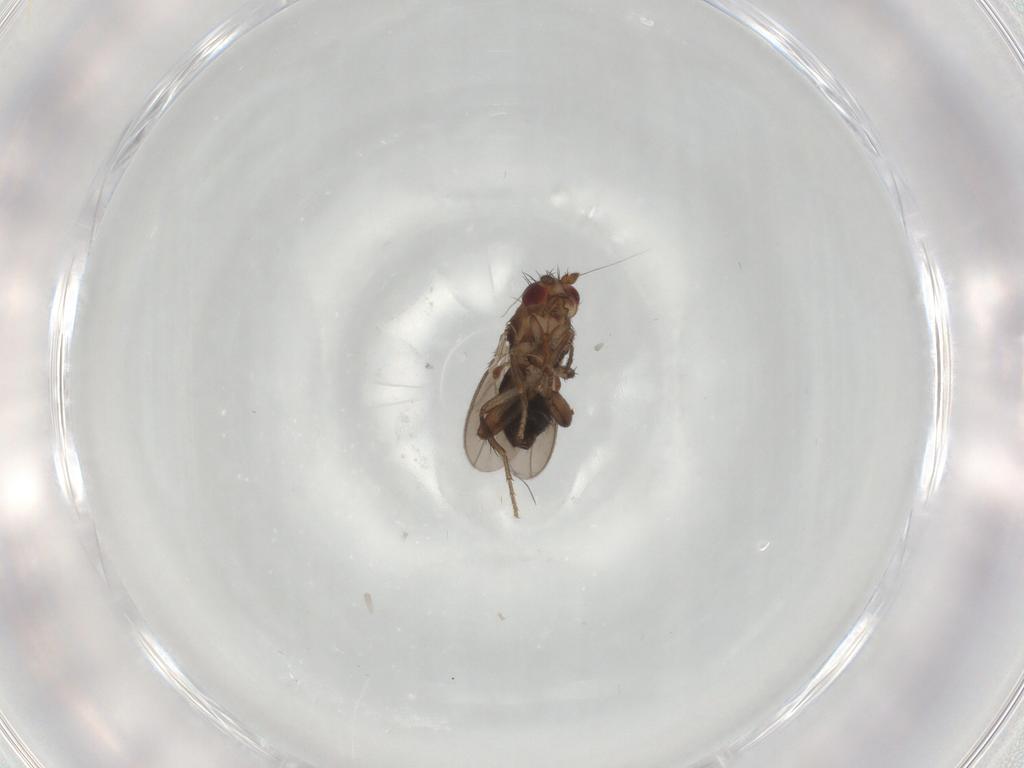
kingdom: Animalia
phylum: Arthropoda
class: Insecta
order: Diptera
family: Sphaeroceridae
